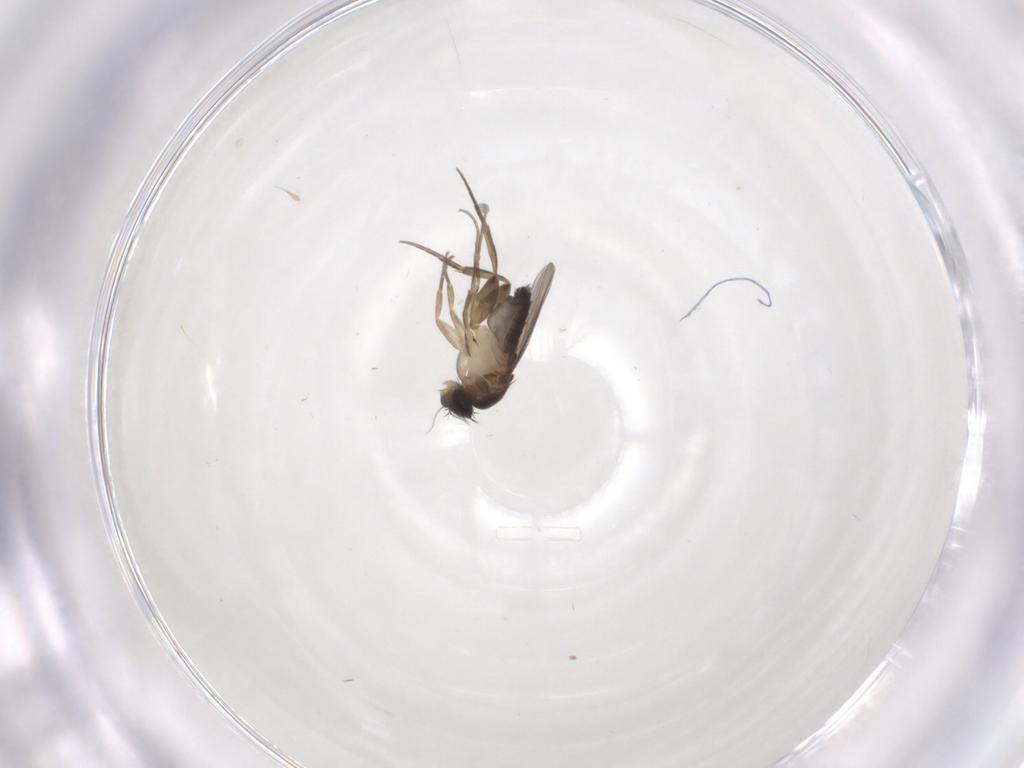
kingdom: Animalia
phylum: Arthropoda
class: Insecta
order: Diptera
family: Phoridae
